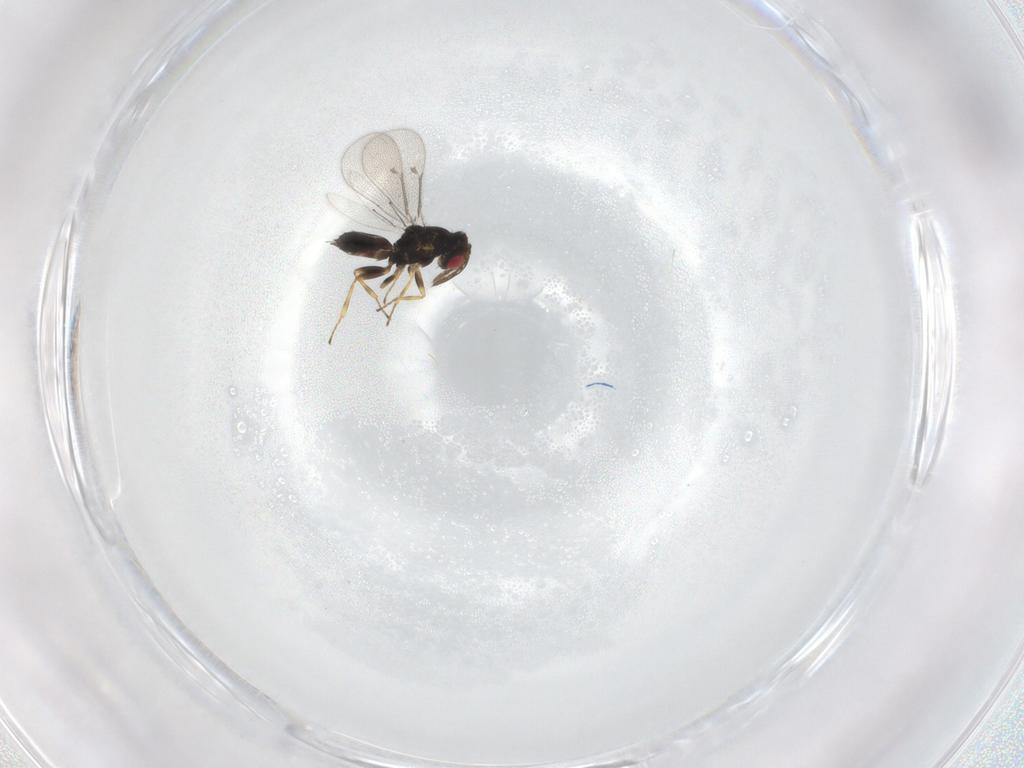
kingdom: Animalia
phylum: Arthropoda
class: Insecta
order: Hymenoptera
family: Eulophidae
